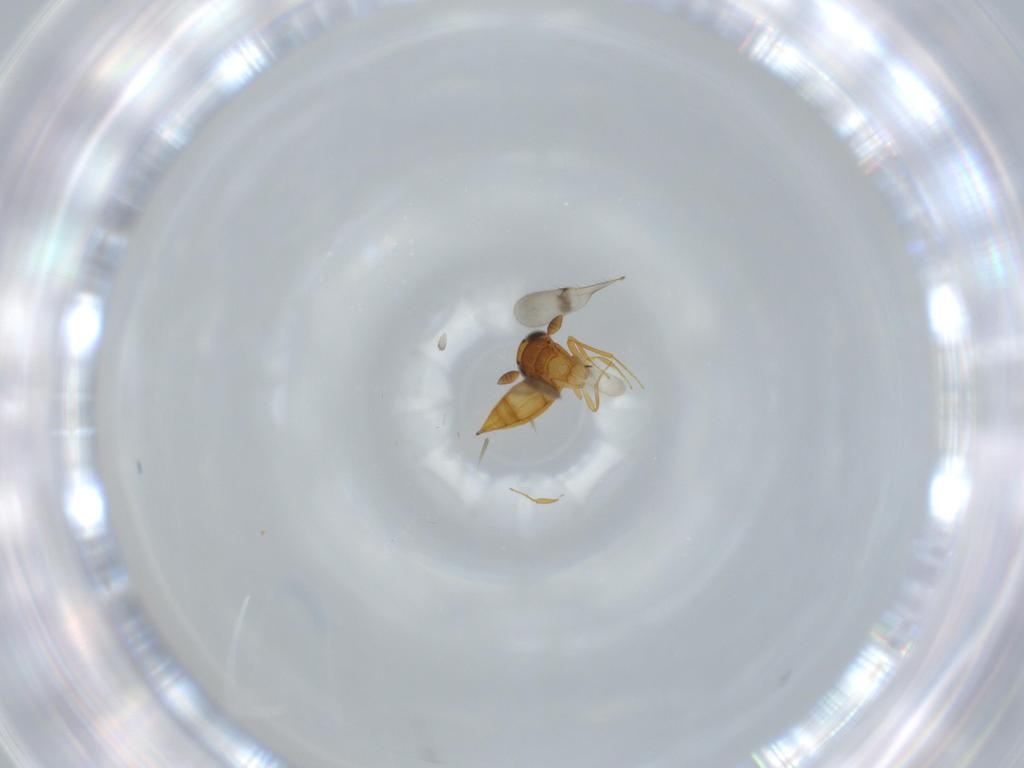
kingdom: Animalia
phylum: Arthropoda
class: Insecta
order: Hymenoptera
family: Scelionidae
